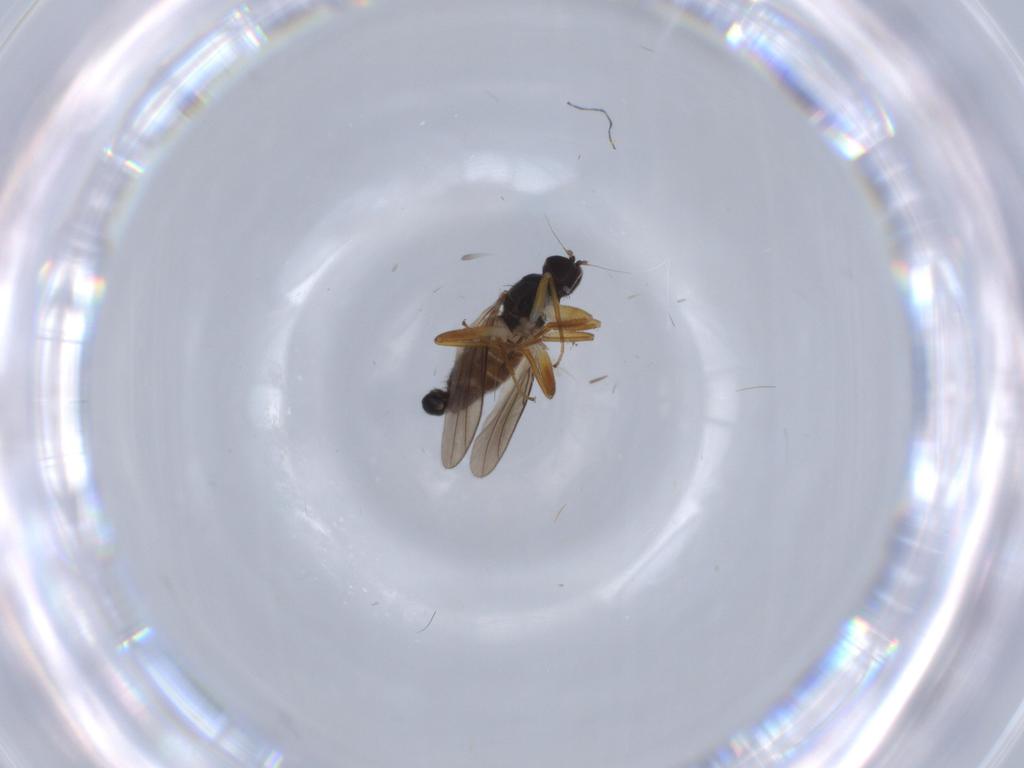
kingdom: Animalia
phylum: Arthropoda
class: Insecta
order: Diptera
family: Hybotidae
